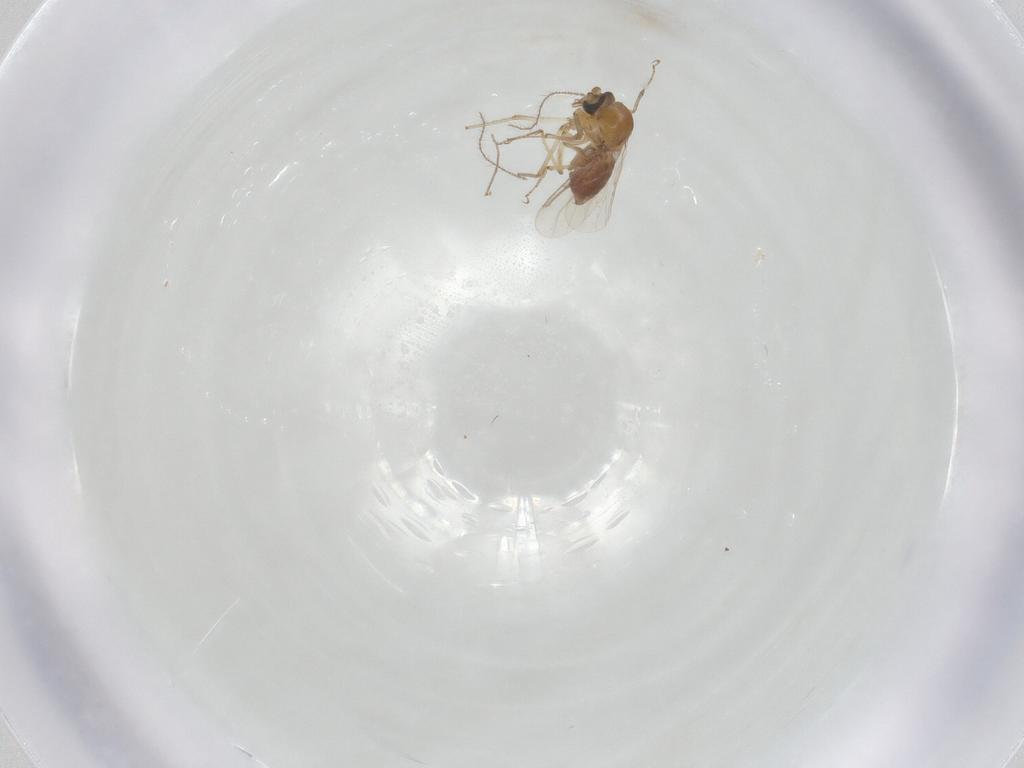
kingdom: Animalia
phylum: Arthropoda
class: Insecta
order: Diptera
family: Ceratopogonidae
